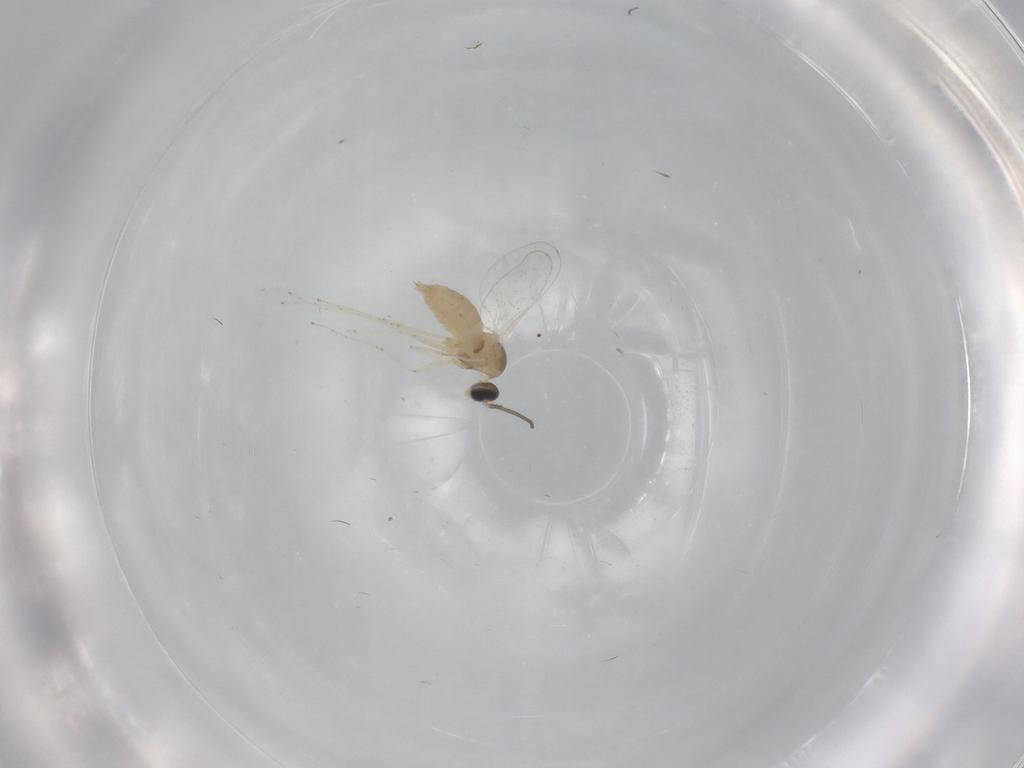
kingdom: Animalia
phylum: Arthropoda
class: Insecta
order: Diptera
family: Cecidomyiidae
